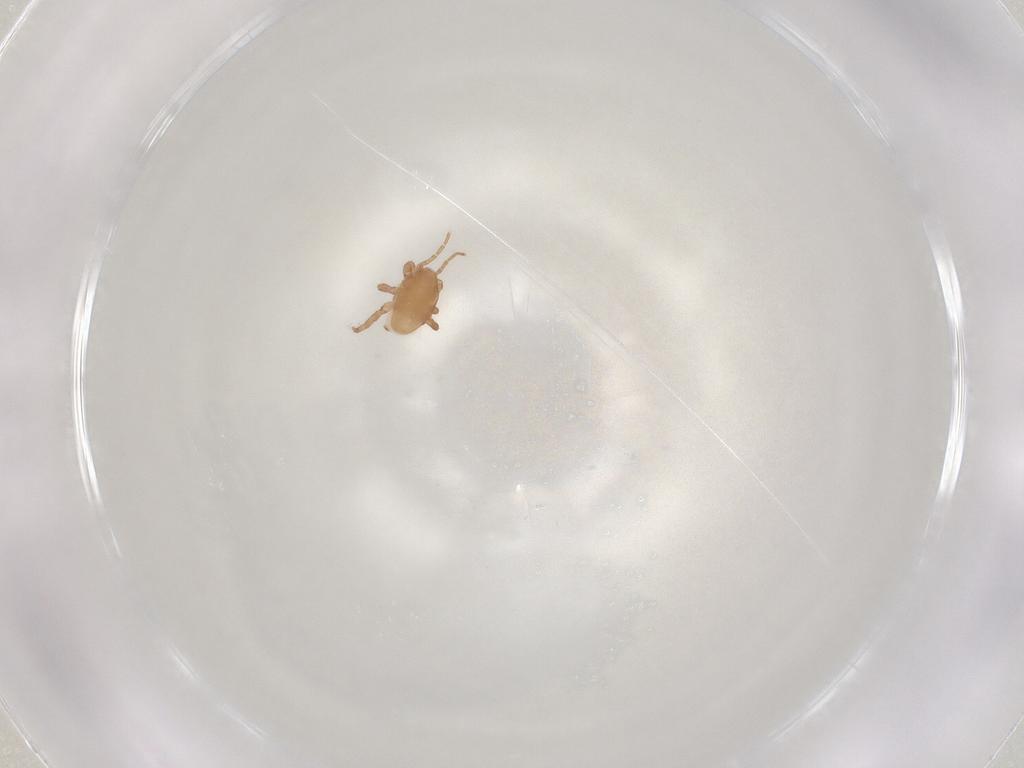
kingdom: Animalia
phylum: Arthropoda
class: Arachnida
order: Mesostigmata
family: Macrochelidae
